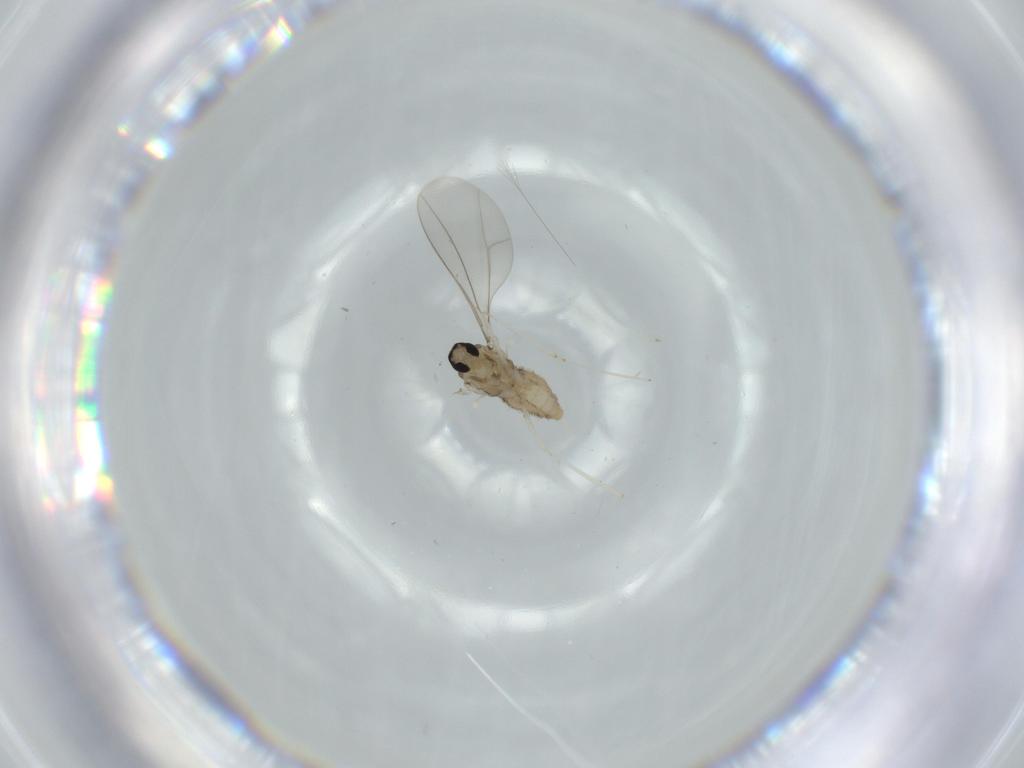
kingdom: Animalia
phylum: Arthropoda
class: Insecta
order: Diptera
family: Cecidomyiidae
